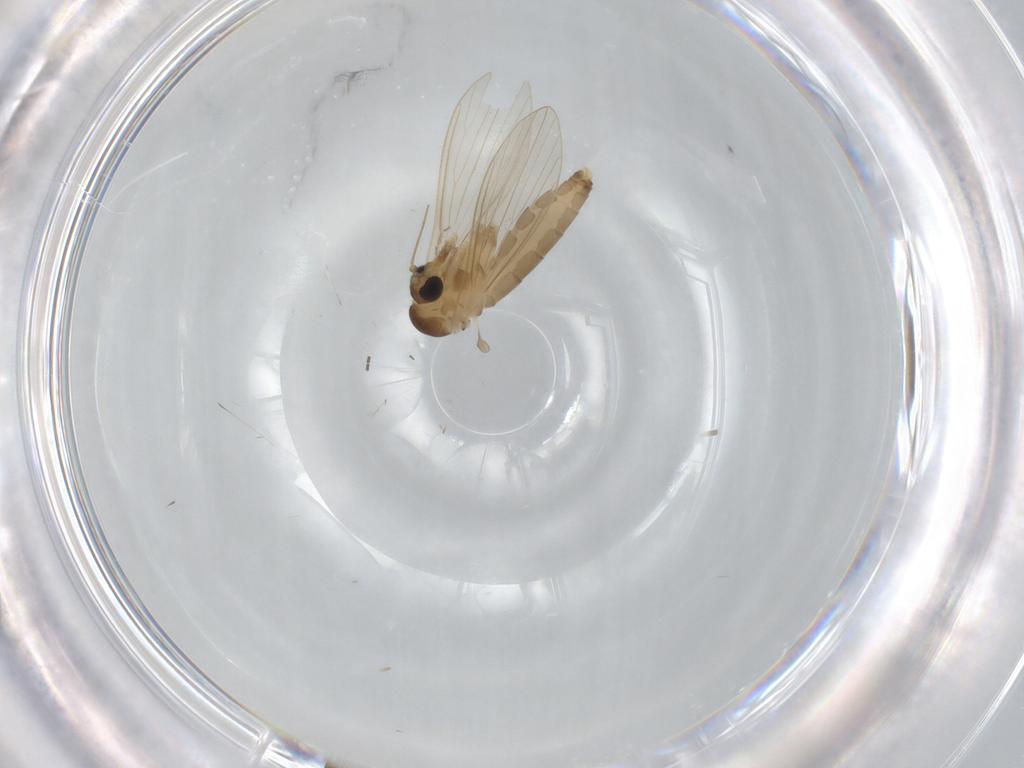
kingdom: Animalia
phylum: Arthropoda
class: Insecta
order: Diptera
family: Psychodidae
